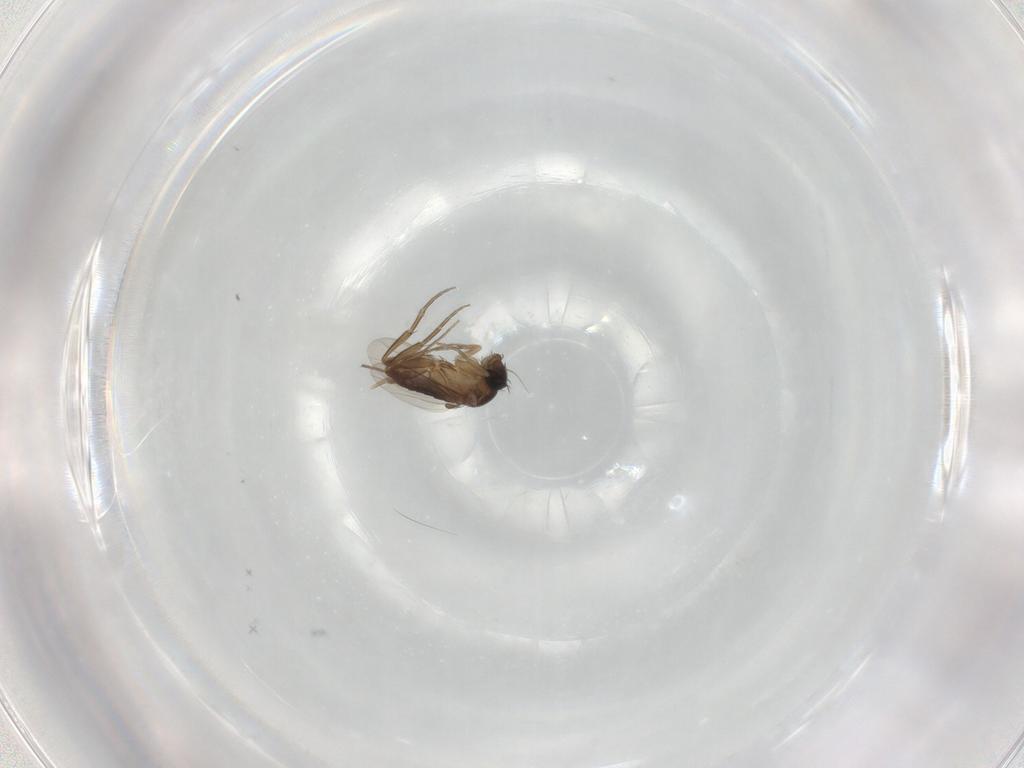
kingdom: Animalia
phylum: Arthropoda
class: Insecta
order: Diptera
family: Phoridae
